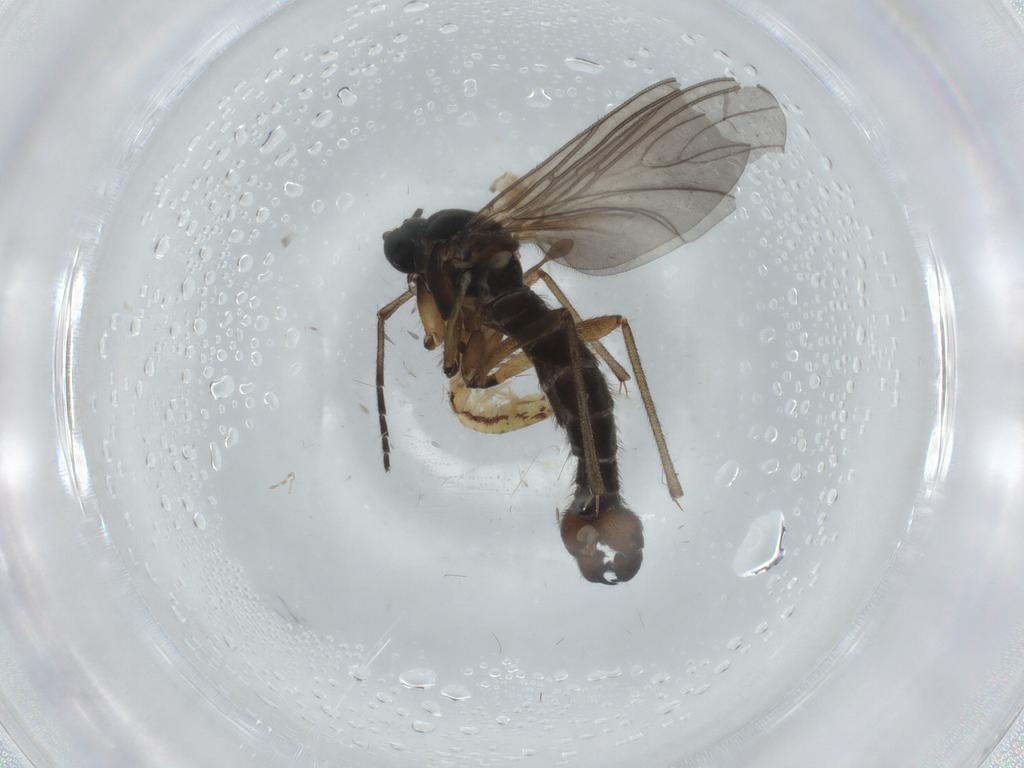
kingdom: Animalia
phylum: Arthropoda
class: Insecta
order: Diptera
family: Sciaridae
